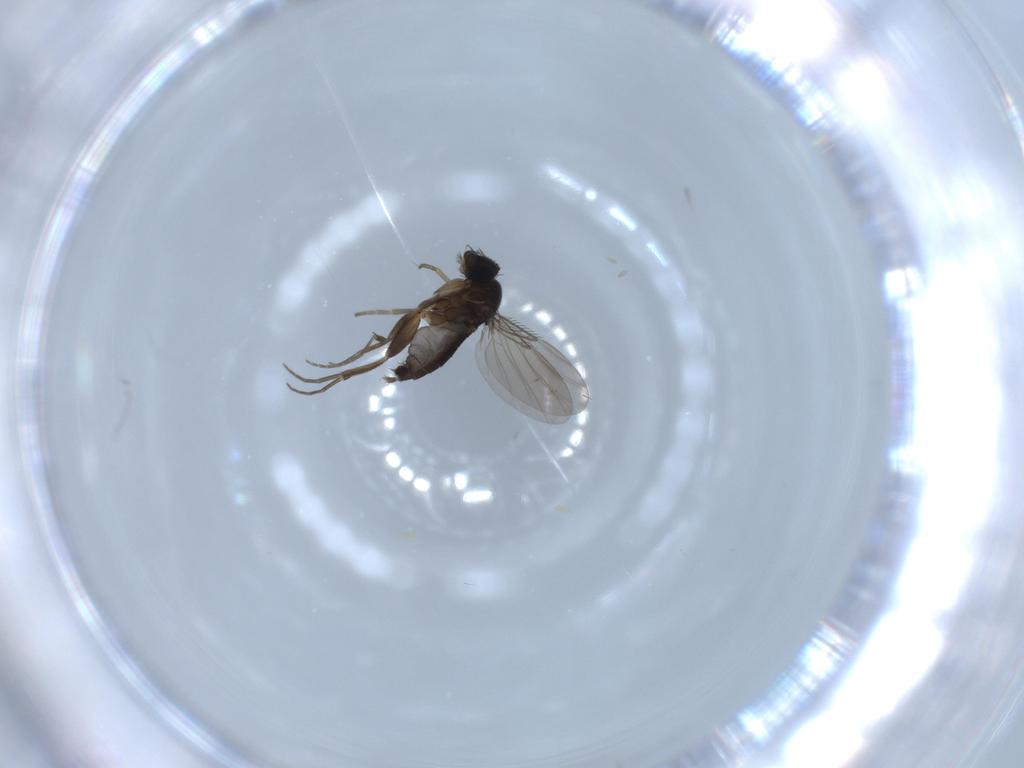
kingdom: Animalia
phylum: Arthropoda
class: Insecta
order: Diptera
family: Phoridae
